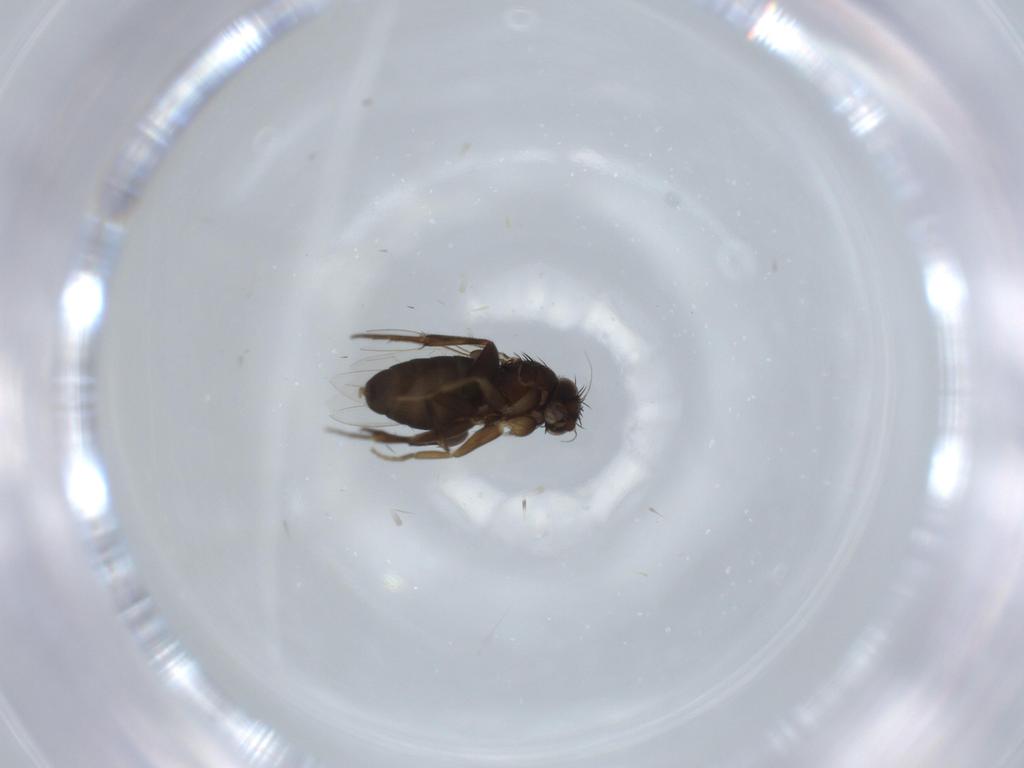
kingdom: Animalia
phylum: Arthropoda
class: Insecta
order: Diptera
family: Phoridae
